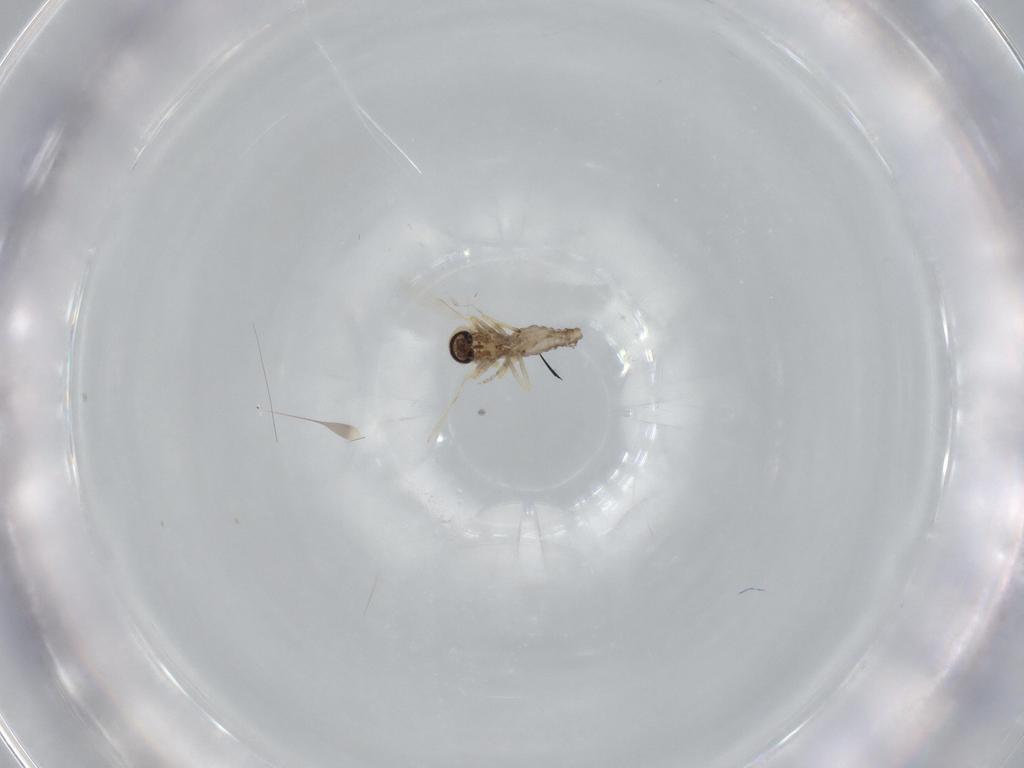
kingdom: Animalia
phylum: Arthropoda
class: Insecta
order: Diptera
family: Ceratopogonidae
